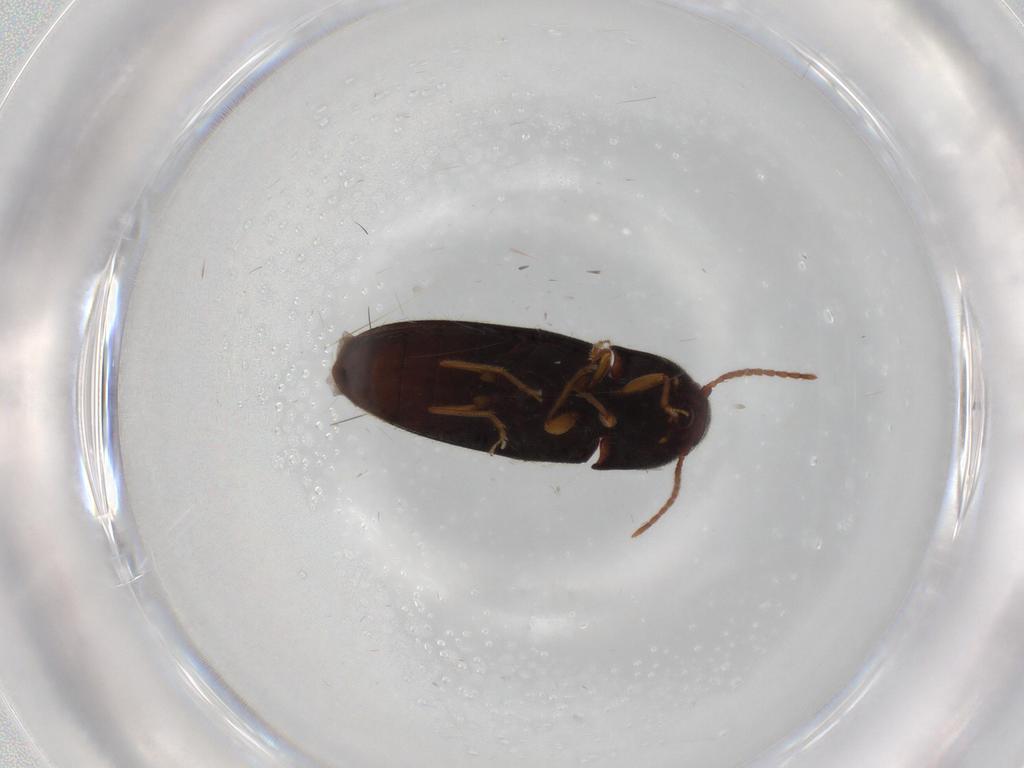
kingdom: Animalia
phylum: Arthropoda
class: Insecta
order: Coleoptera
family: Elateridae
